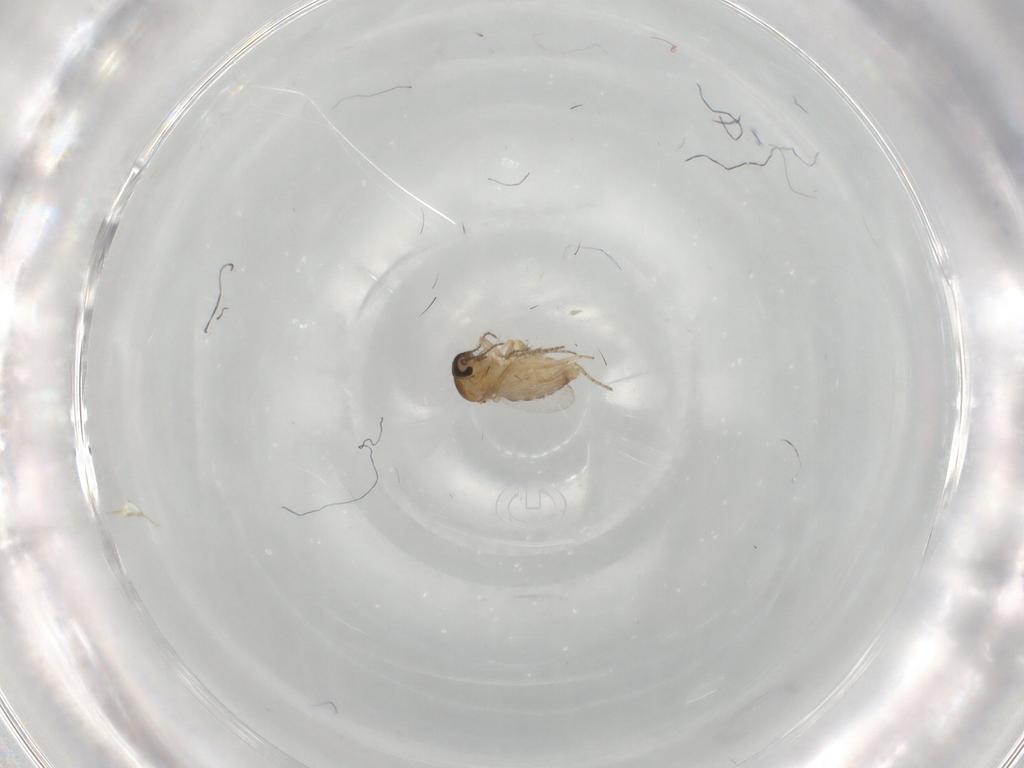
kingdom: Animalia
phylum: Arthropoda
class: Insecta
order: Diptera
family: Ceratopogonidae
